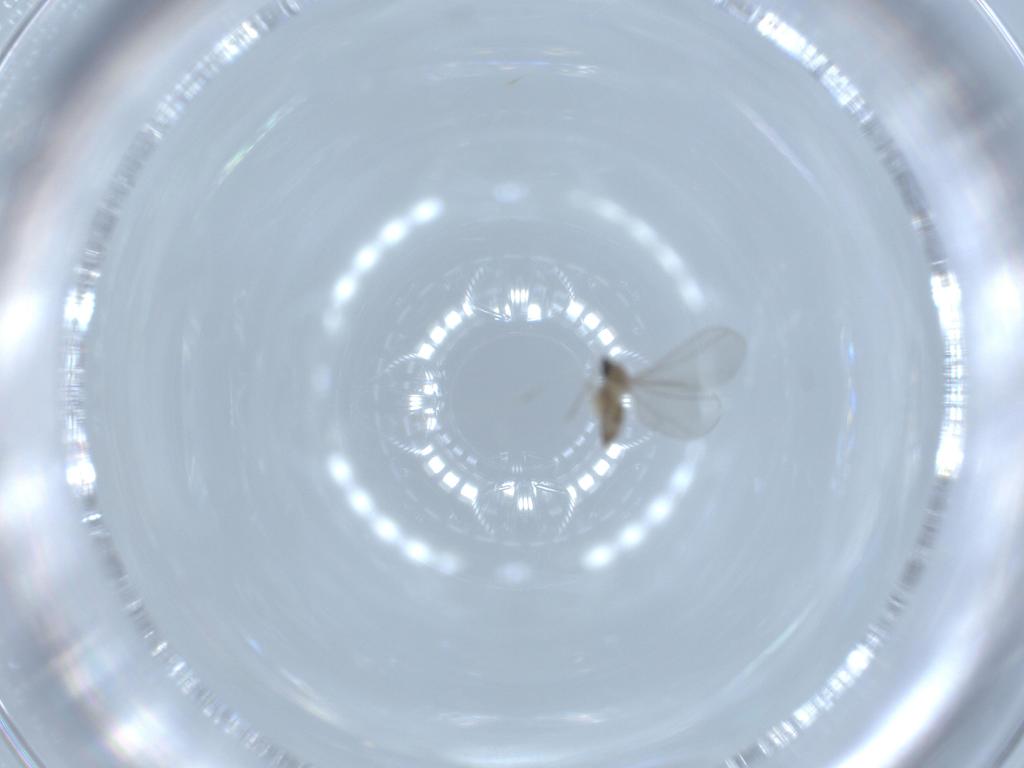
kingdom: Animalia
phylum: Arthropoda
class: Insecta
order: Diptera
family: Cecidomyiidae
